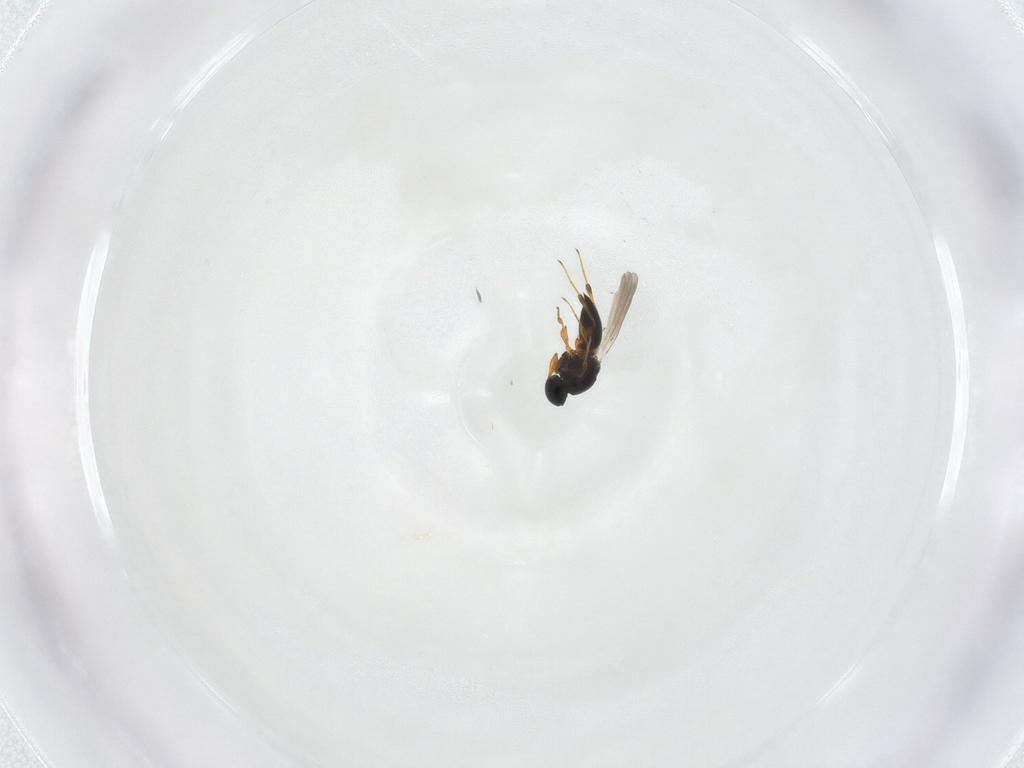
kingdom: Animalia
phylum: Arthropoda
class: Insecta
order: Hymenoptera
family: Platygastridae
